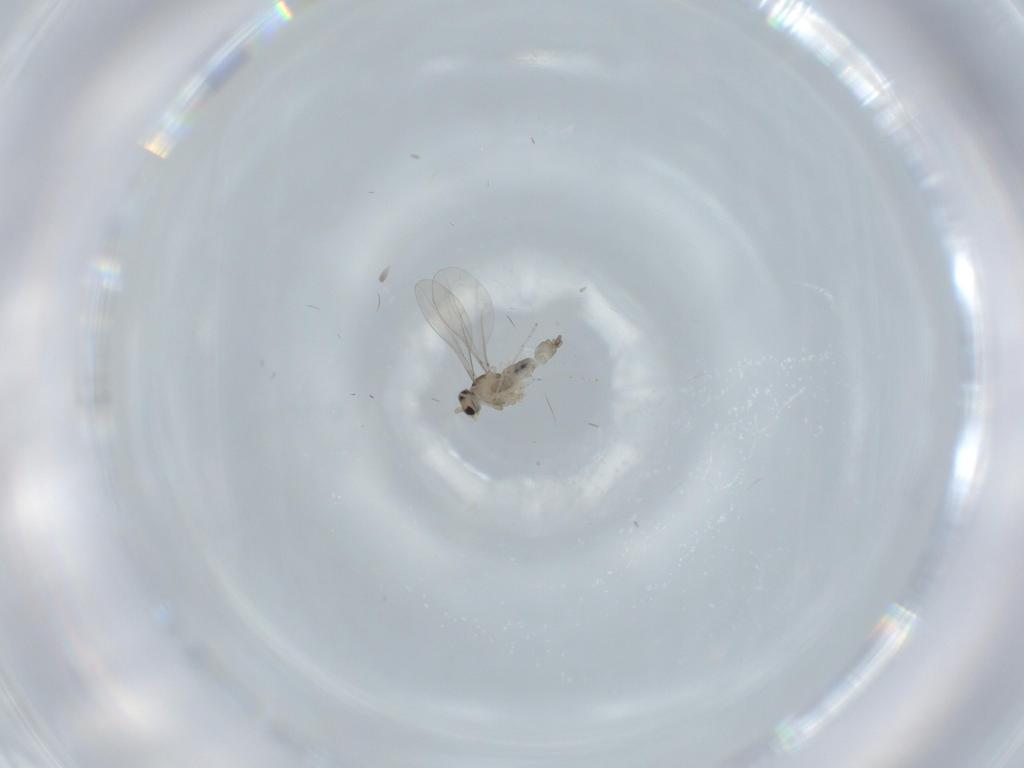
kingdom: Animalia
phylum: Arthropoda
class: Insecta
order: Diptera
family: Cecidomyiidae
